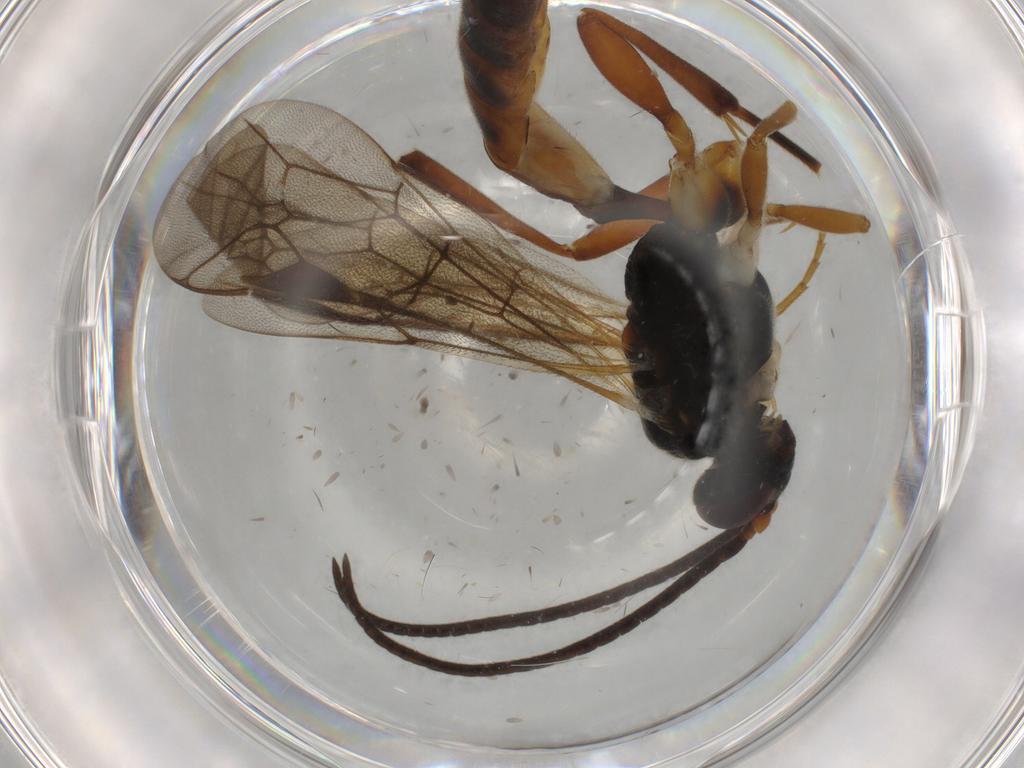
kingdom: Animalia
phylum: Arthropoda
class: Insecta
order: Hymenoptera
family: Ichneumonidae
